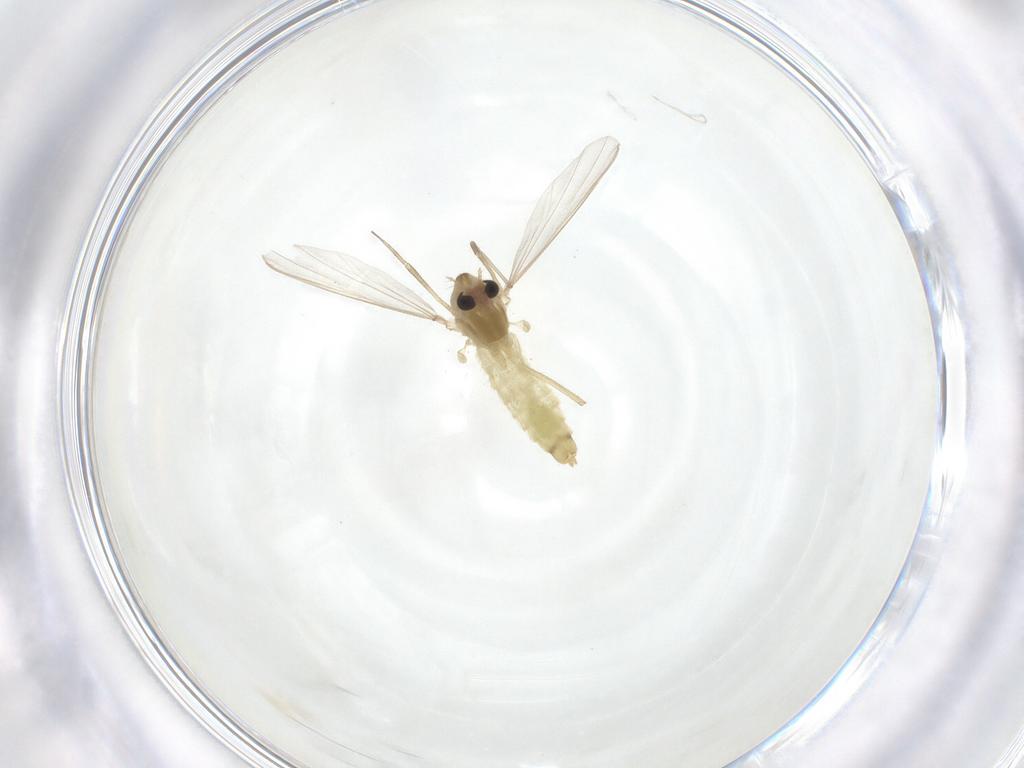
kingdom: Animalia
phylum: Arthropoda
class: Insecta
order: Diptera
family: Chironomidae
